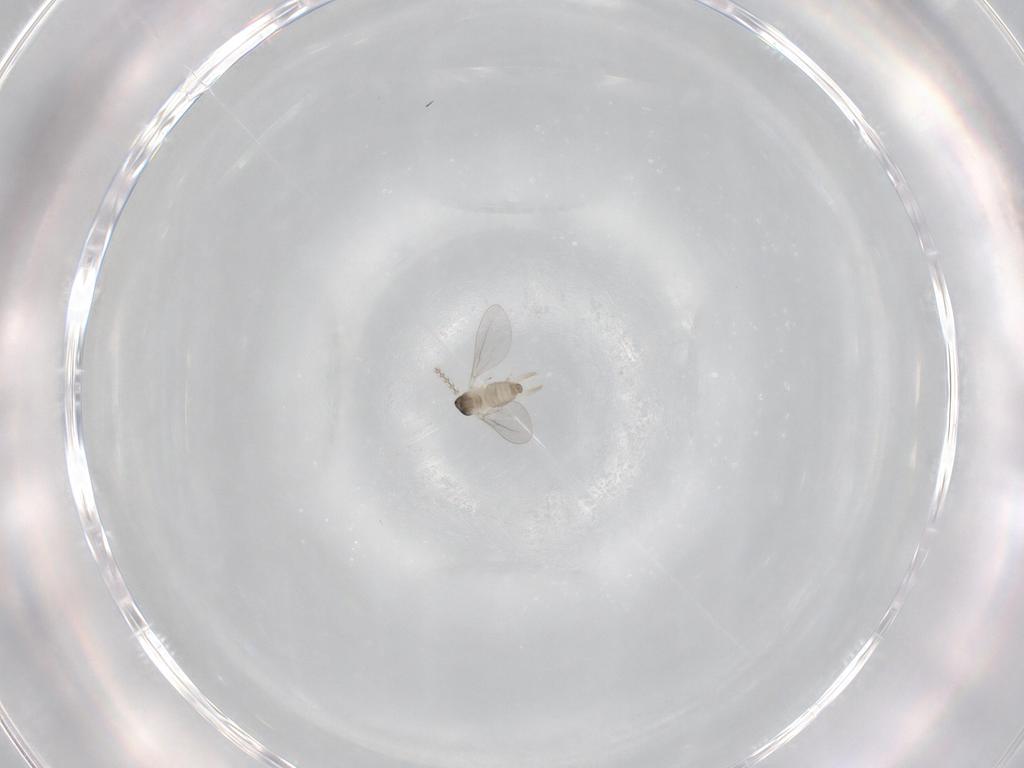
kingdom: Animalia
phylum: Arthropoda
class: Insecta
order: Diptera
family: Cecidomyiidae
